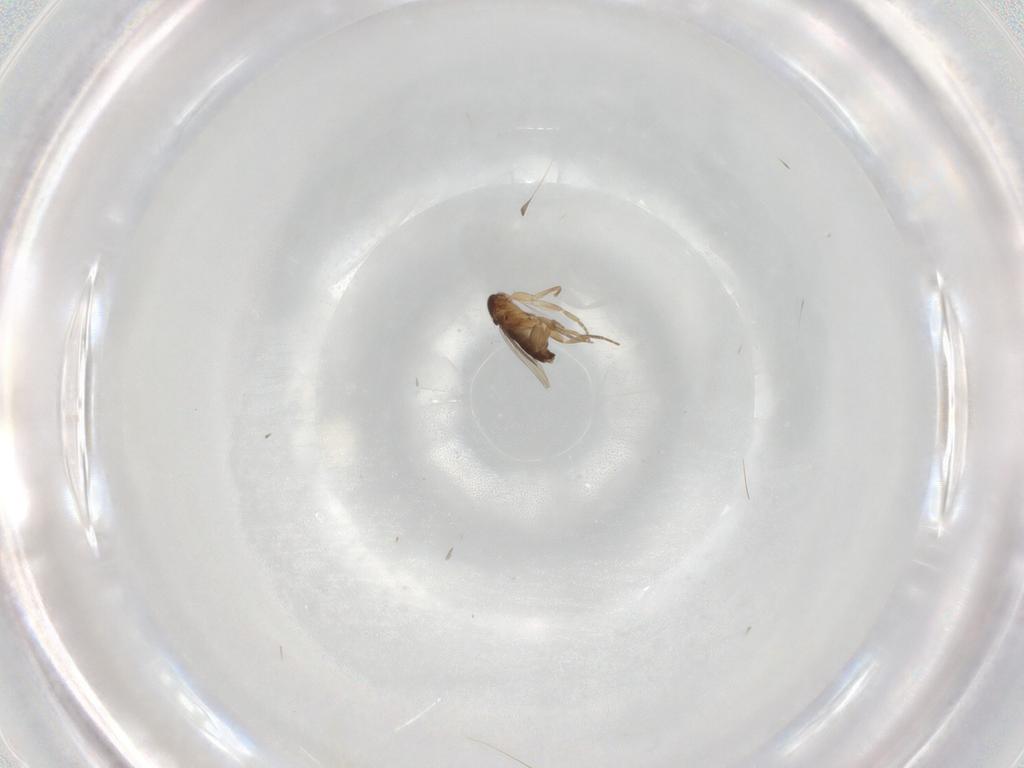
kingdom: Animalia
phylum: Arthropoda
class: Insecta
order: Diptera
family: Phoridae
